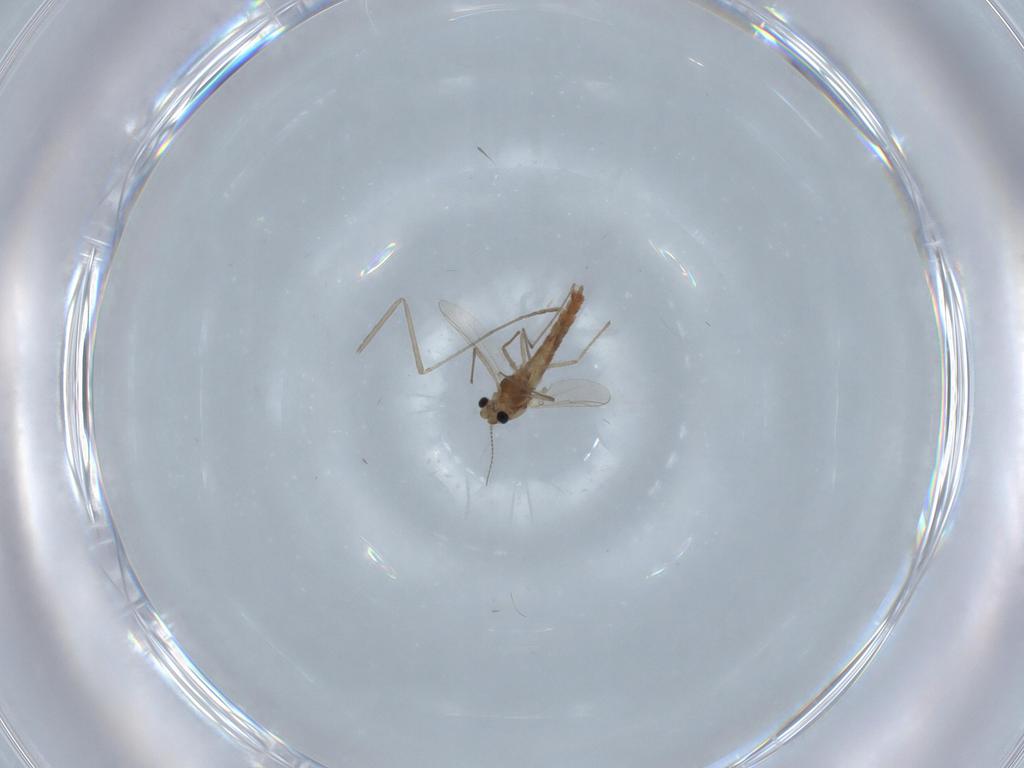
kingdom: Animalia
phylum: Arthropoda
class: Insecta
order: Diptera
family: Chironomidae
